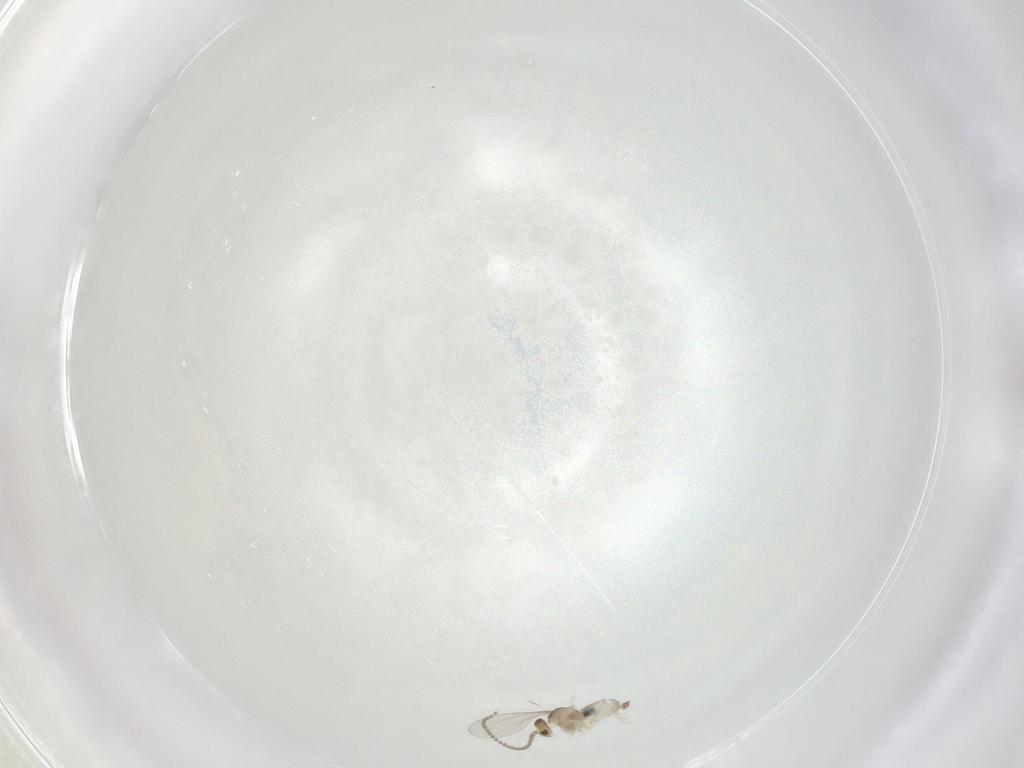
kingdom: Animalia
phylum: Arthropoda
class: Insecta
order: Diptera
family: Cecidomyiidae
